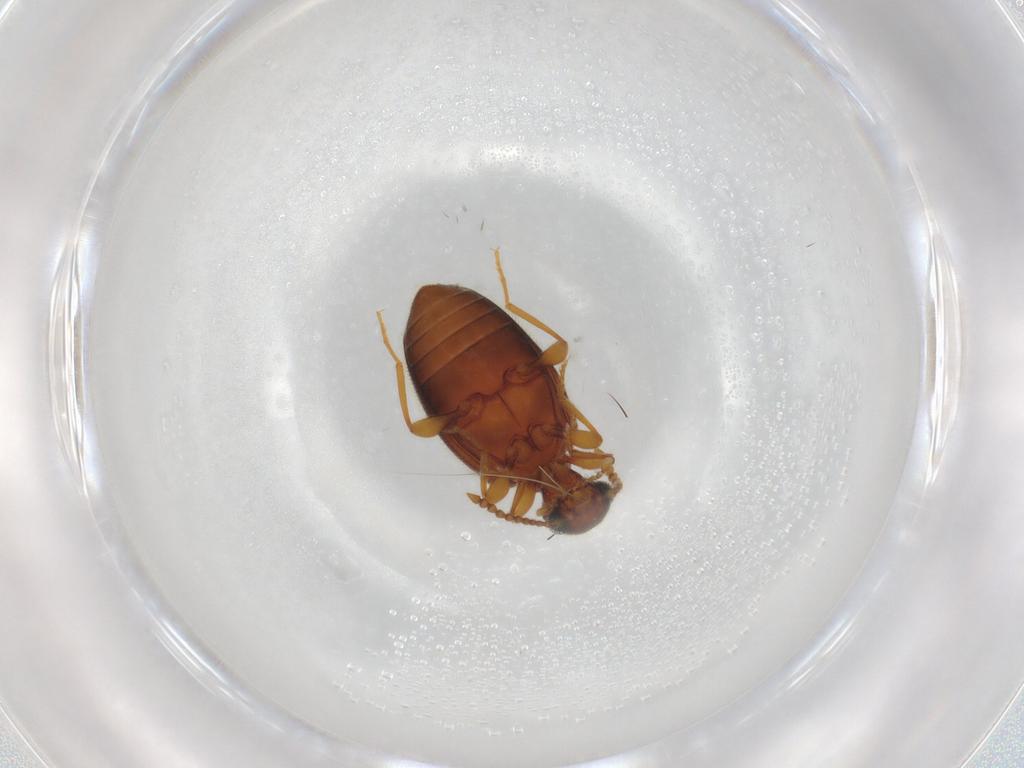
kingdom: Animalia
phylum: Arthropoda
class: Insecta
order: Coleoptera
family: Anthicidae
